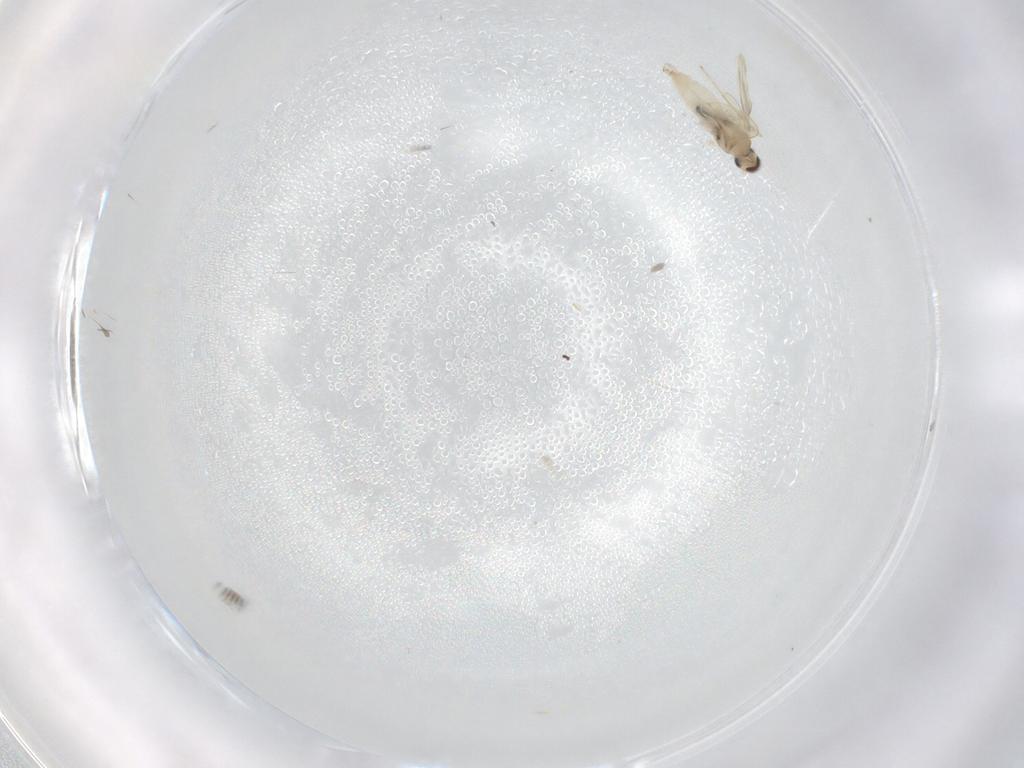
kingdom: Animalia
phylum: Arthropoda
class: Insecta
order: Diptera
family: Cecidomyiidae
